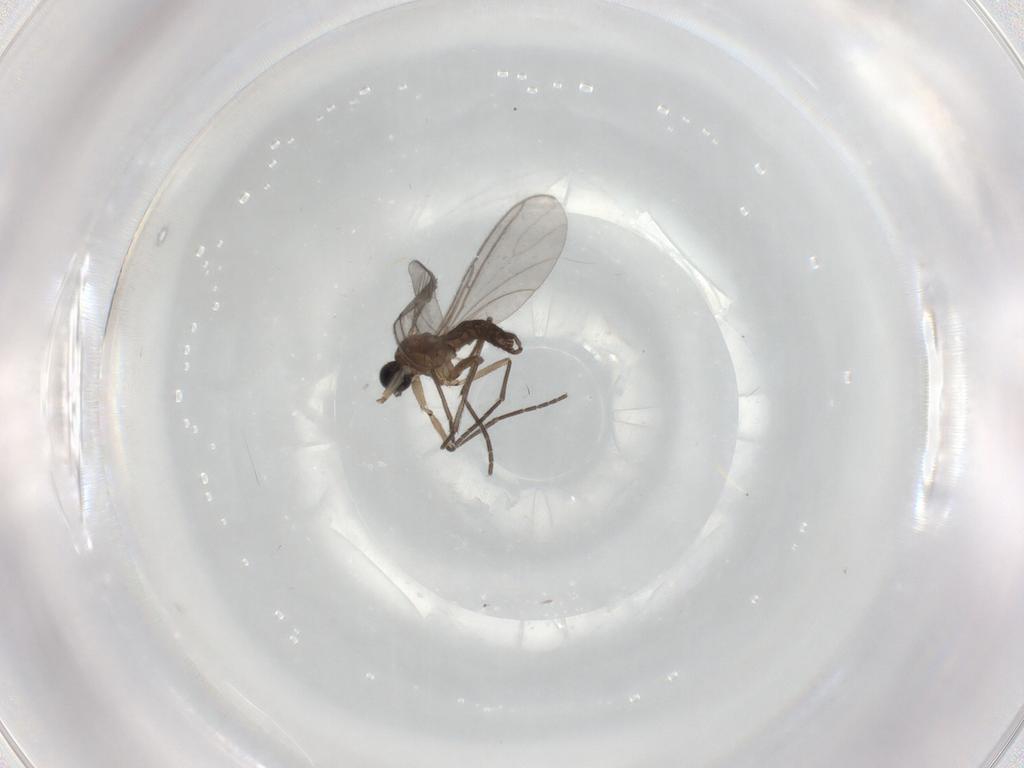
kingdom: Animalia
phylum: Arthropoda
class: Insecta
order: Diptera
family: Sciaridae
